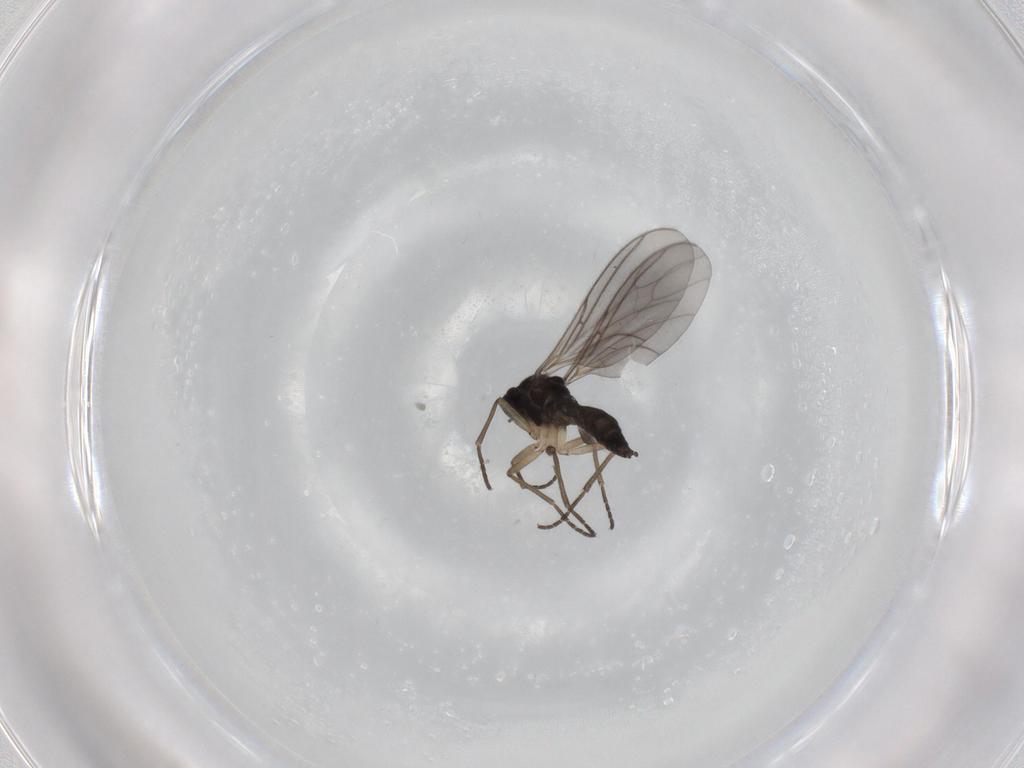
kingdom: Animalia
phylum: Arthropoda
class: Insecta
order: Diptera
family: Sciaridae
